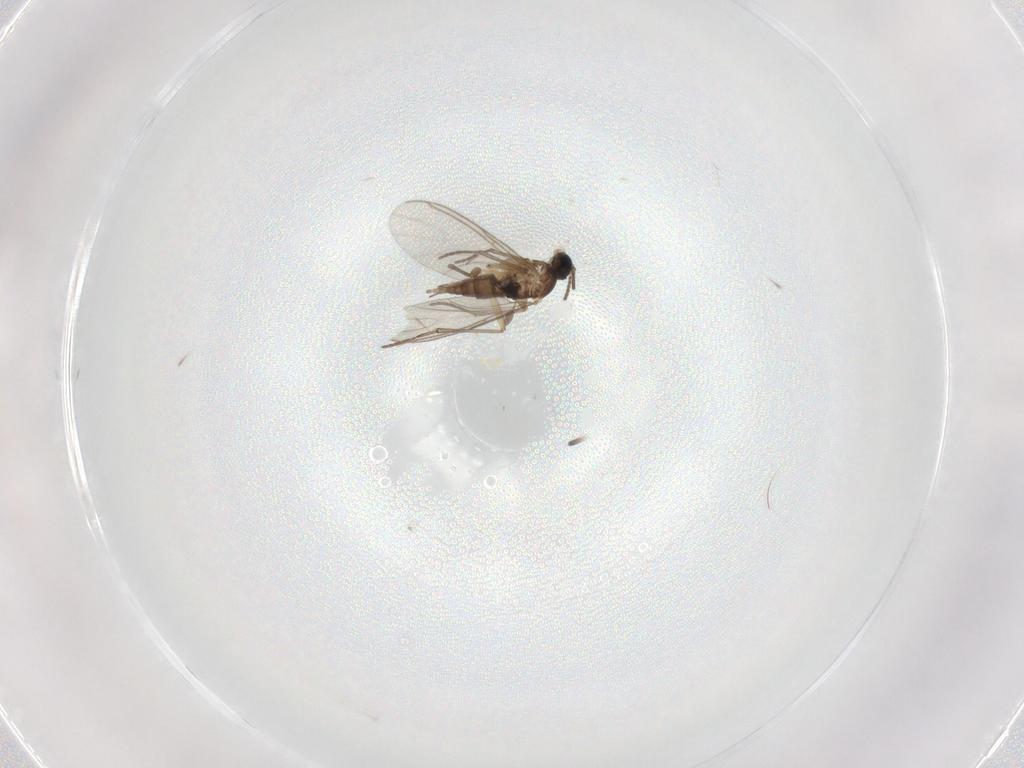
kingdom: Animalia
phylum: Arthropoda
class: Insecta
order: Diptera
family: Sciaridae
